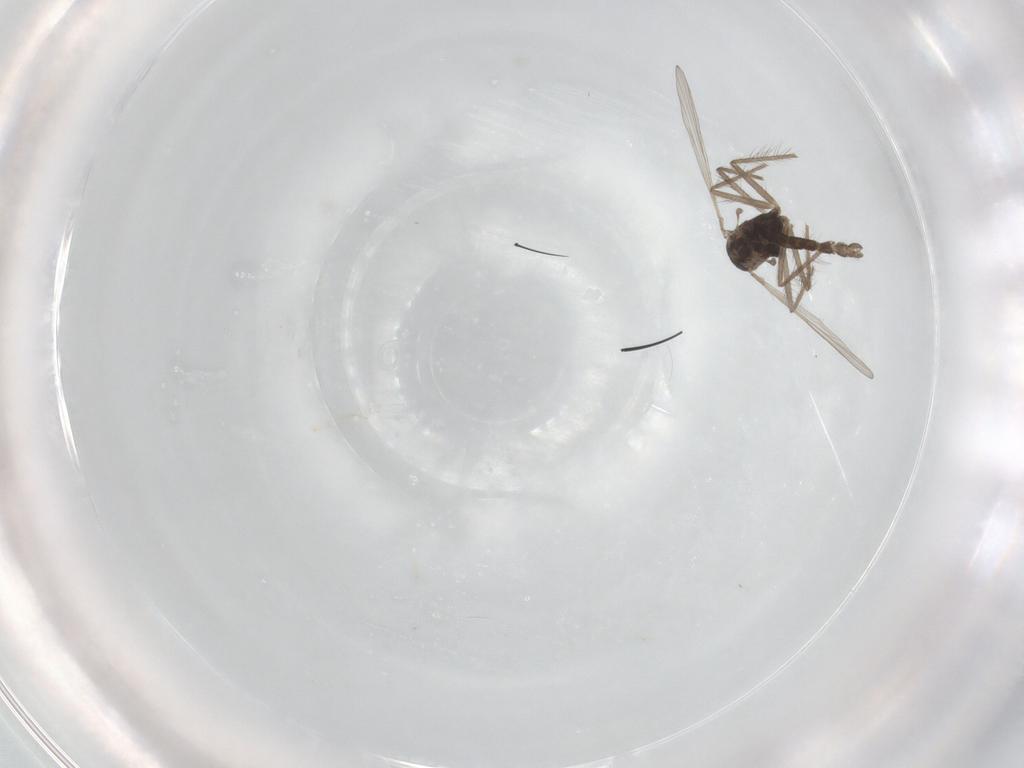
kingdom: Animalia
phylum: Arthropoda
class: Insecta
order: Diptera
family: Chironomidae
